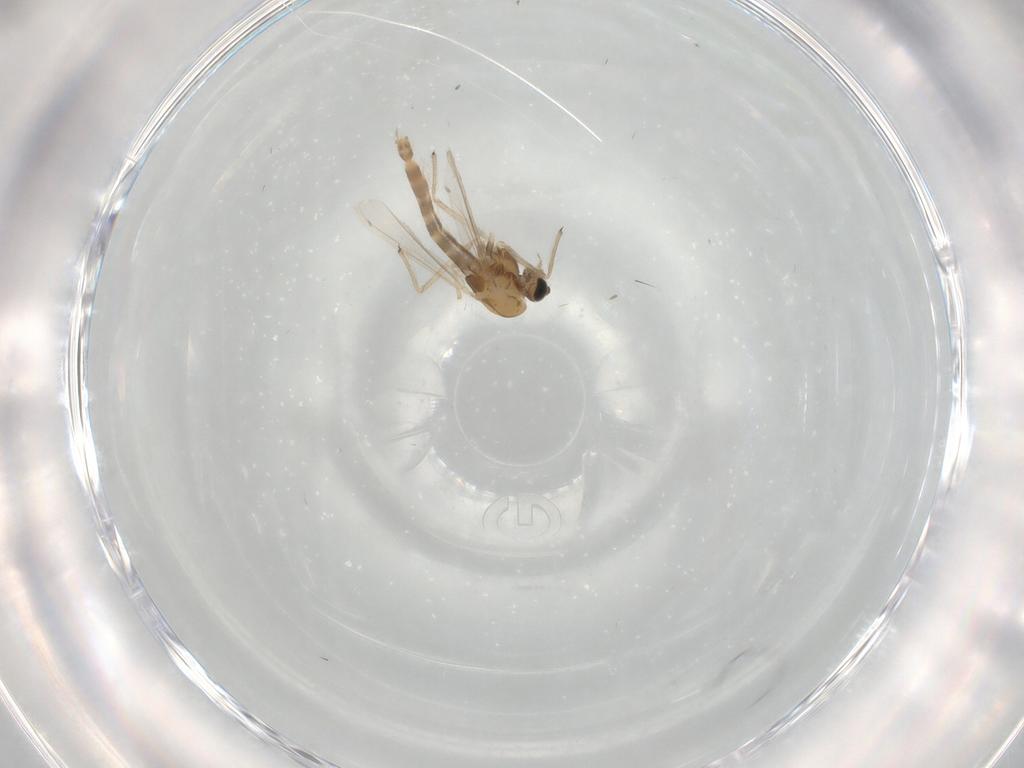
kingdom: Animalia
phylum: Arthropoda
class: Insecta
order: Diptera
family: Chironomidae
